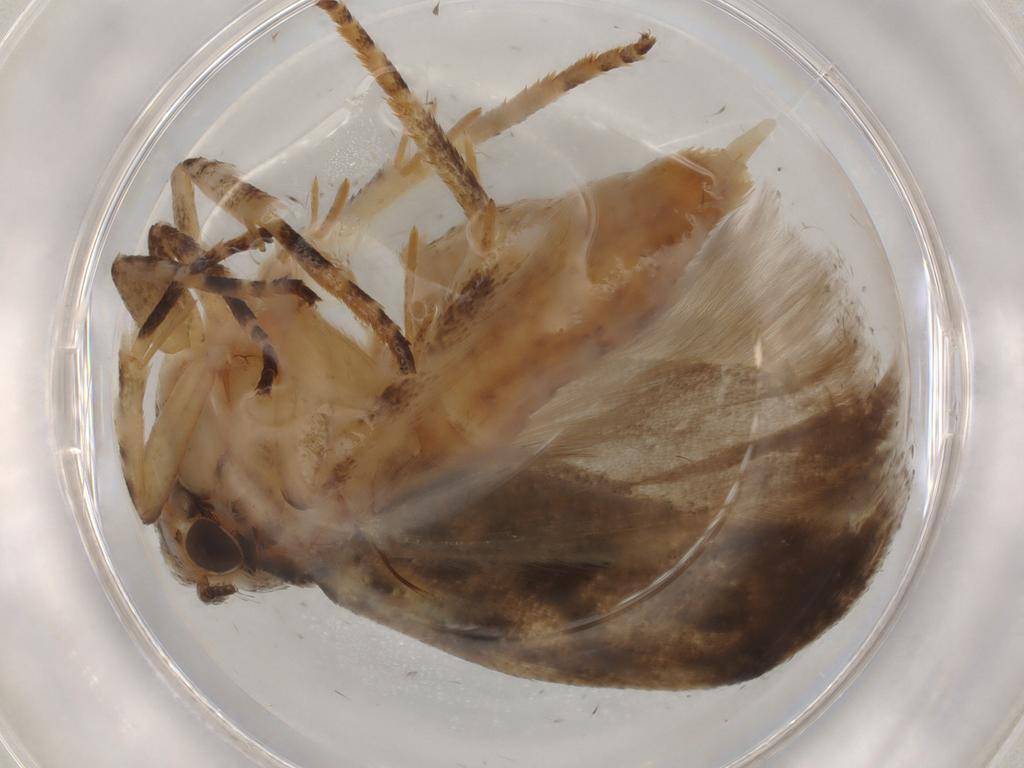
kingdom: Animalia
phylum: Arthropoda
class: Insecta
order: Lepidoptera
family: Gelechiidae
